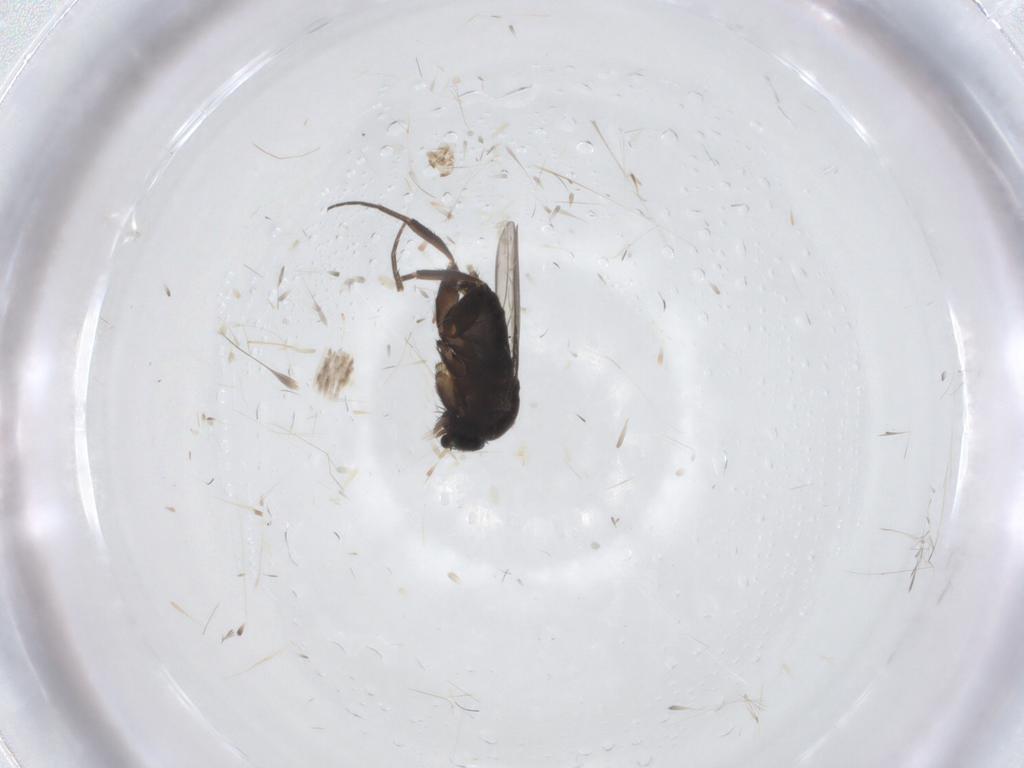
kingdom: Animalia
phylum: Arthropoda
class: Insecta
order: Diptera
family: Phoridae
